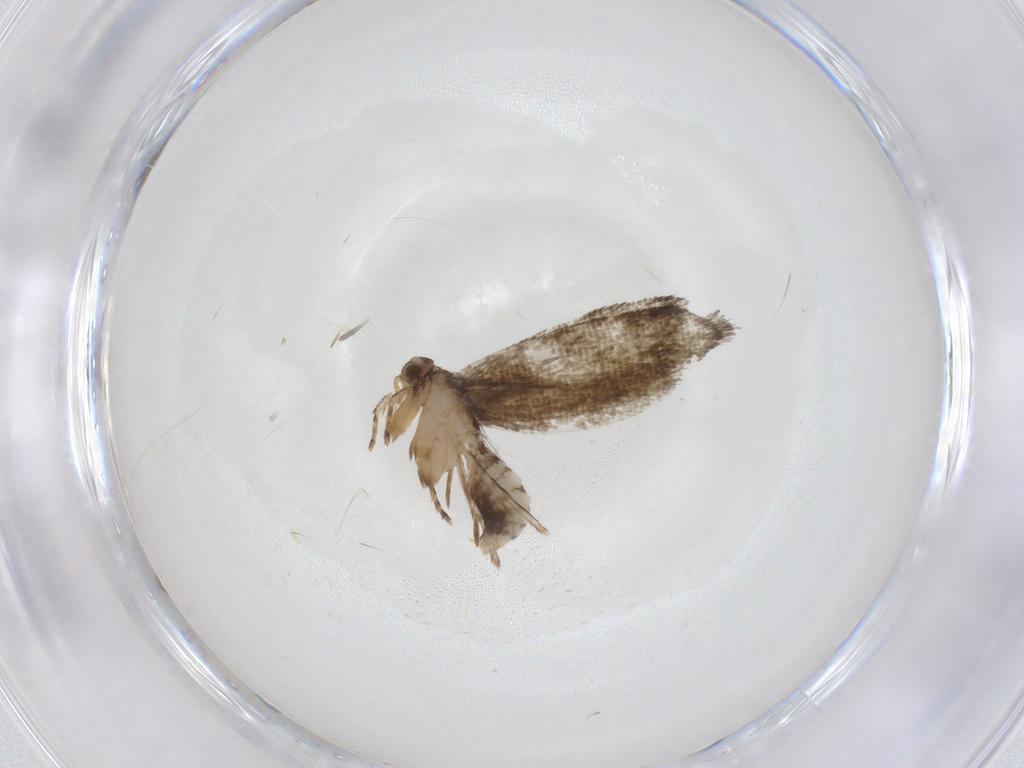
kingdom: Animalia
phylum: Arthropoda
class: Insecta
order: Lepidoptera
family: Tineidae
